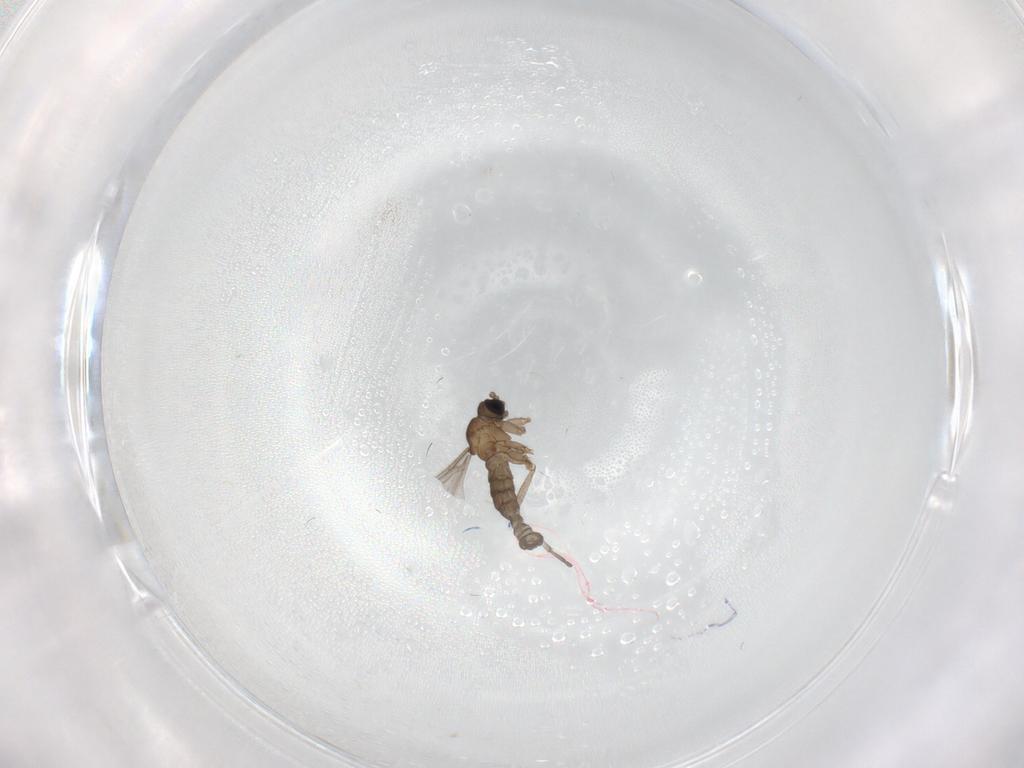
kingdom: Animalia
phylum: Arthropoda
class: Insecta
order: Diptera
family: Sciaridae
